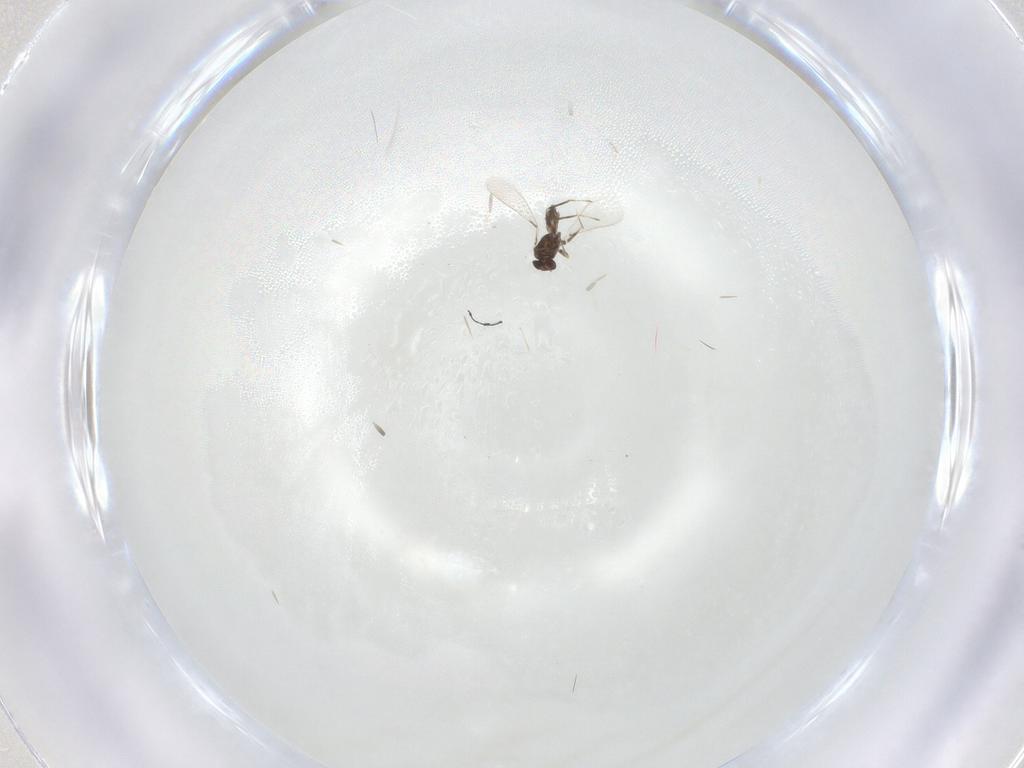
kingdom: Animalia
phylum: Arthropoda
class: Insecta
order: Hymenoptera
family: Mymaridae
